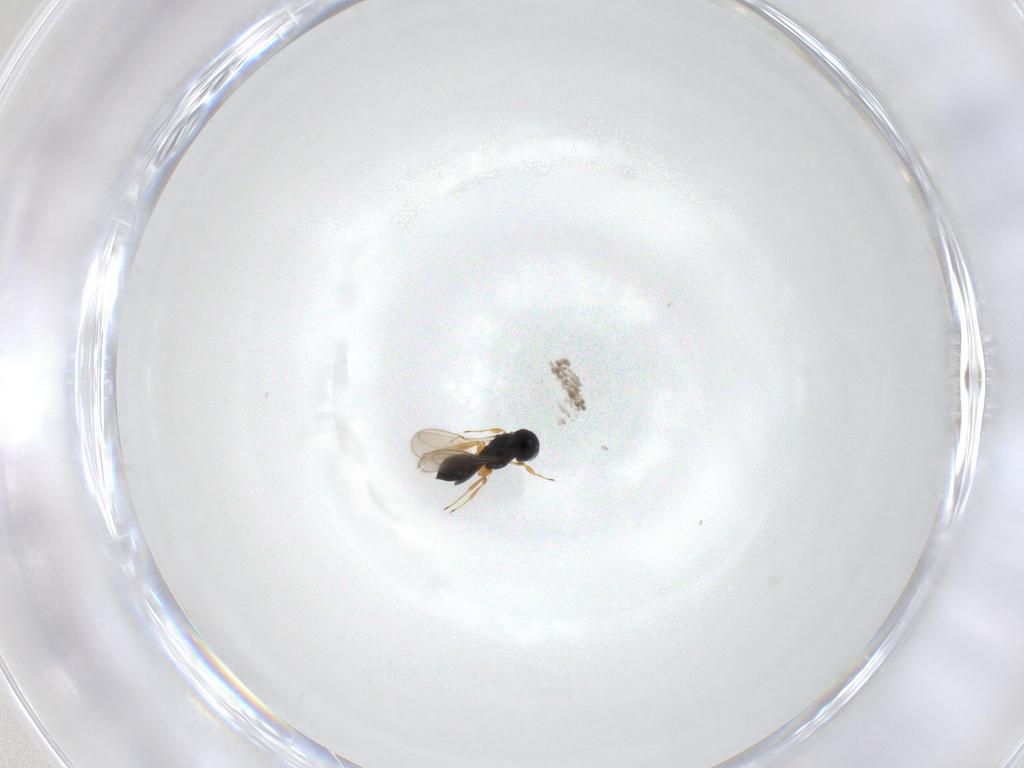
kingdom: Animalia
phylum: Arthropoda
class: Insecta
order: Hymenoptera
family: Scelionidae
